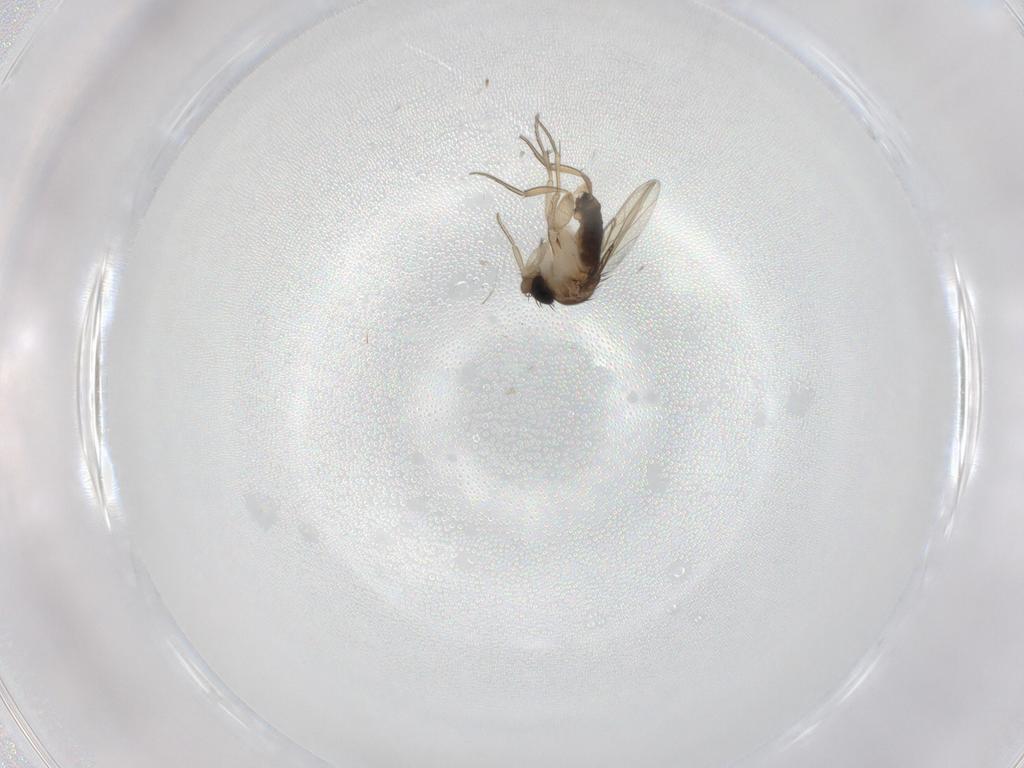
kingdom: Animalia
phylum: Arthropoda
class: Insecta
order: Diptera
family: Phoridae
